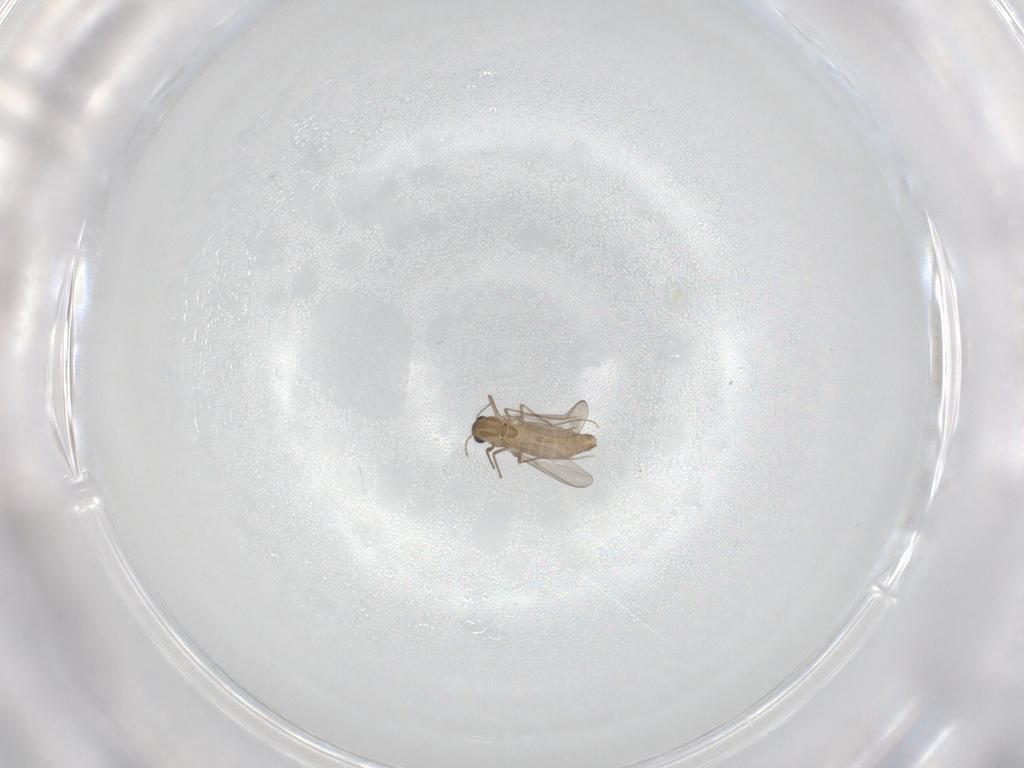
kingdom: Animalia
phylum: Arthropoda
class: Insecta
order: Diptera
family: Chironomidae
